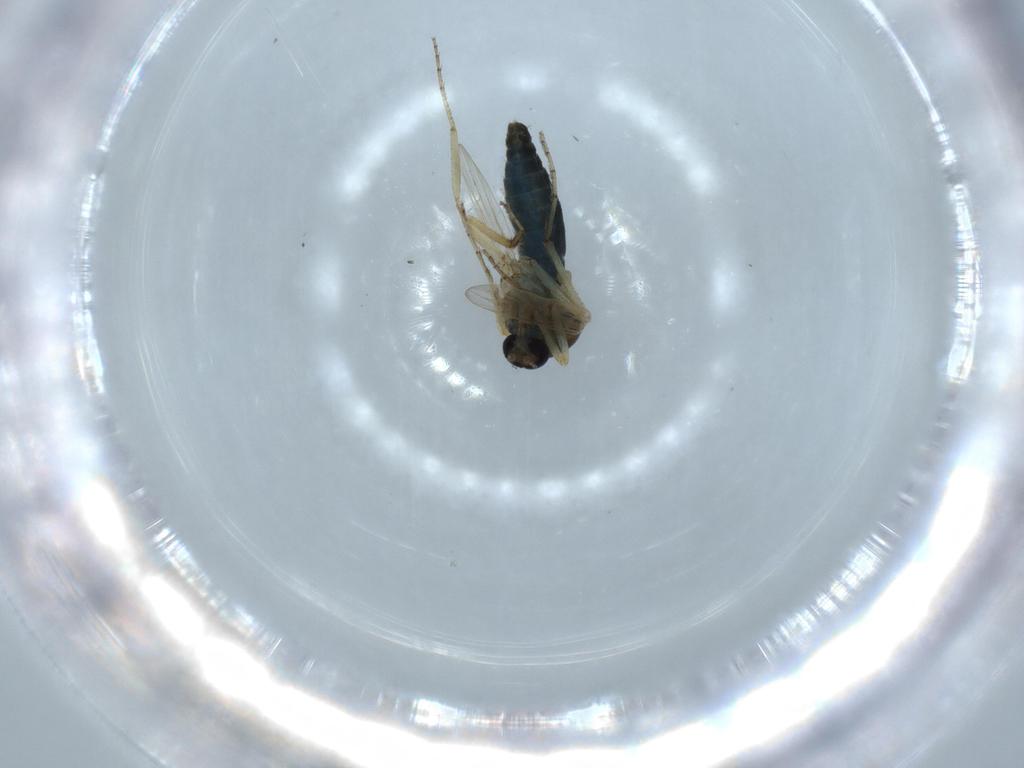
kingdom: Animalia
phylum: Arthropoda
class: Insecta
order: Diptera
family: Ceratopogonidae
